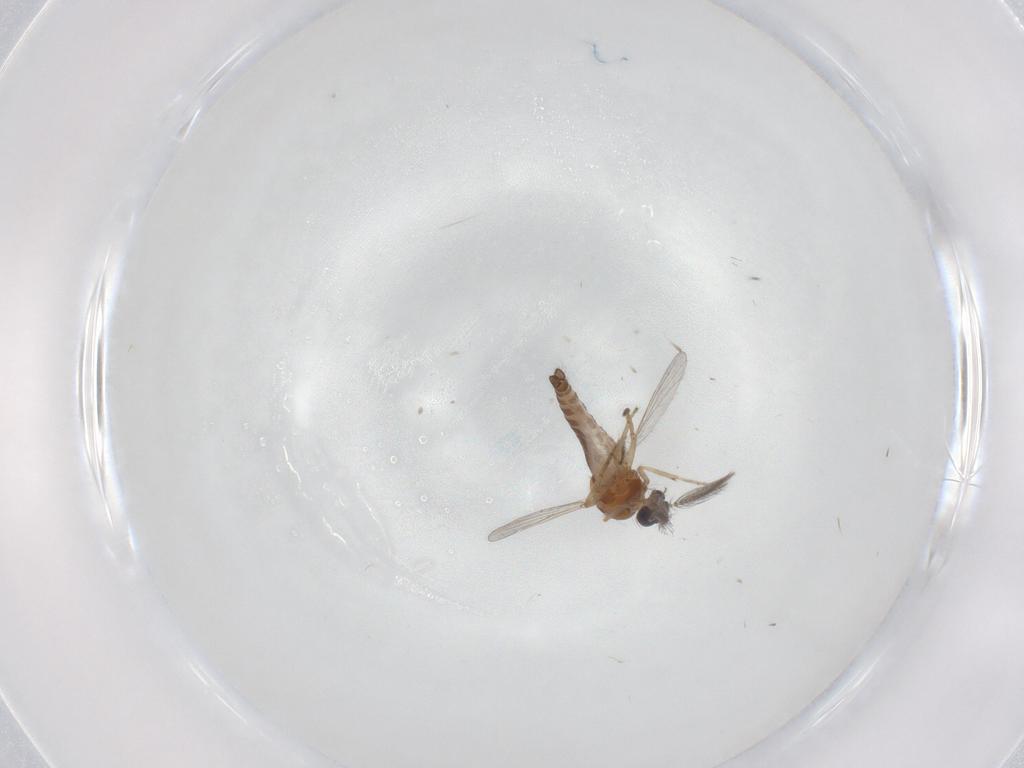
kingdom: Animalia
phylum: Arthropoda
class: Insecta
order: Diptera
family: Ceratopogonidae
